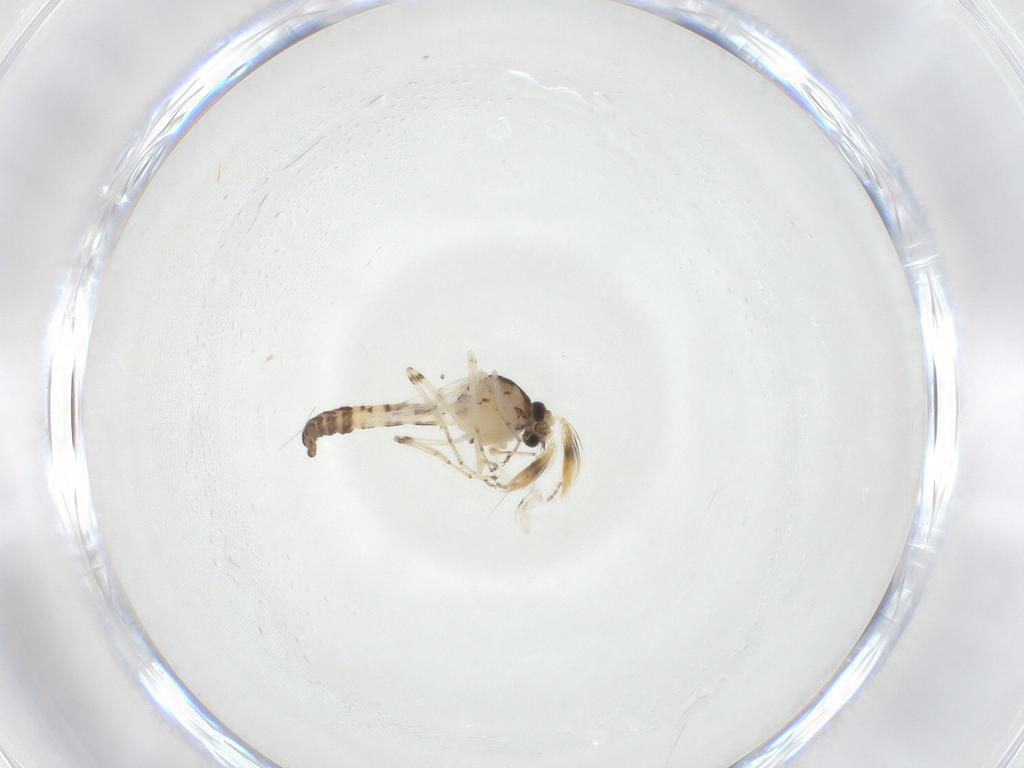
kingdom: Animalia
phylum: Arthropoda
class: Insecta
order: Diptera
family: Ceratopogonidae
